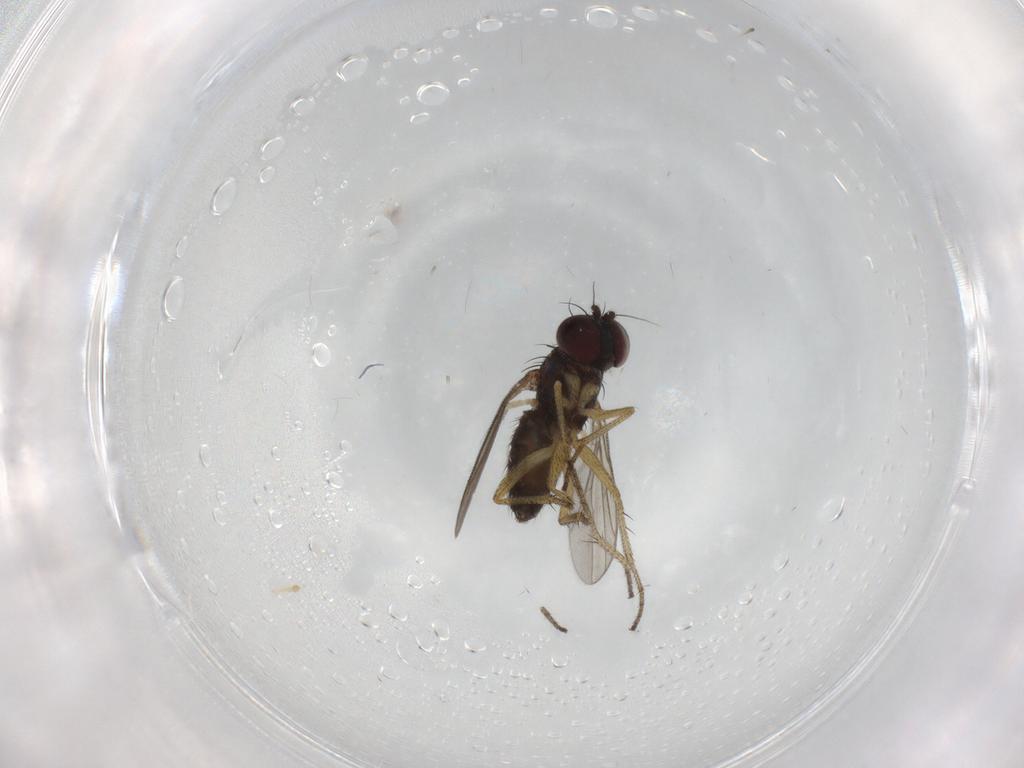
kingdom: Animalia
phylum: Arthropoda
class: Insecta
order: Diptera
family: Dolichopodidae
